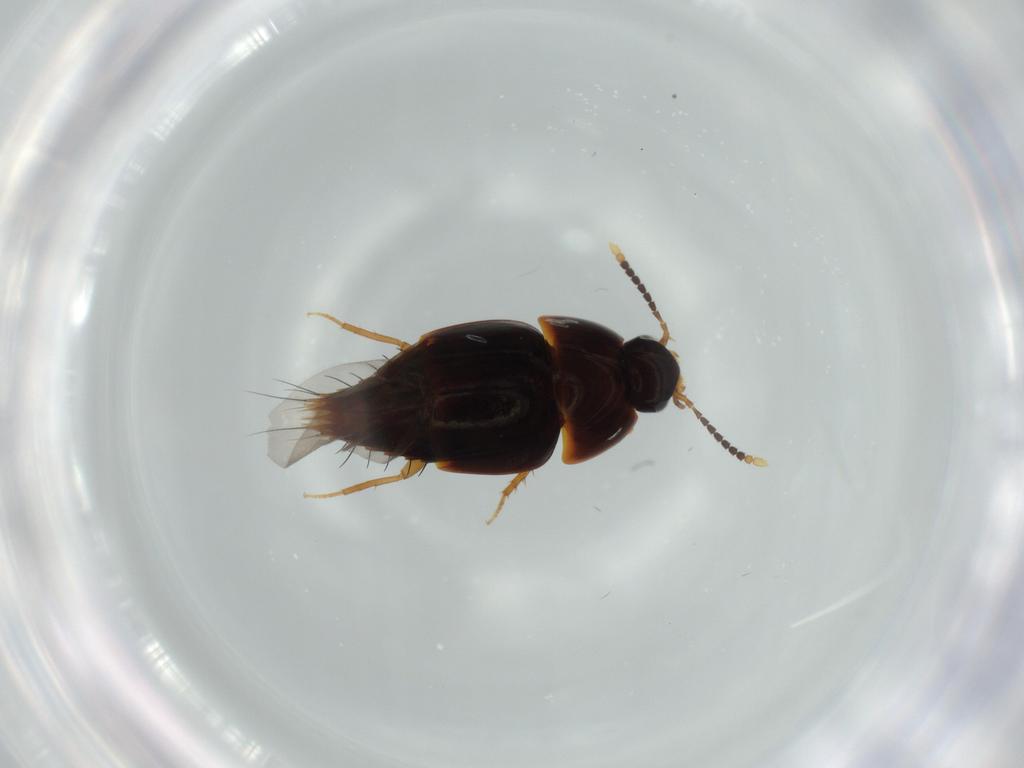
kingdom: Animalia
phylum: Arthropoda
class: Insecta
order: Coleoptera
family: Staphylinidae
